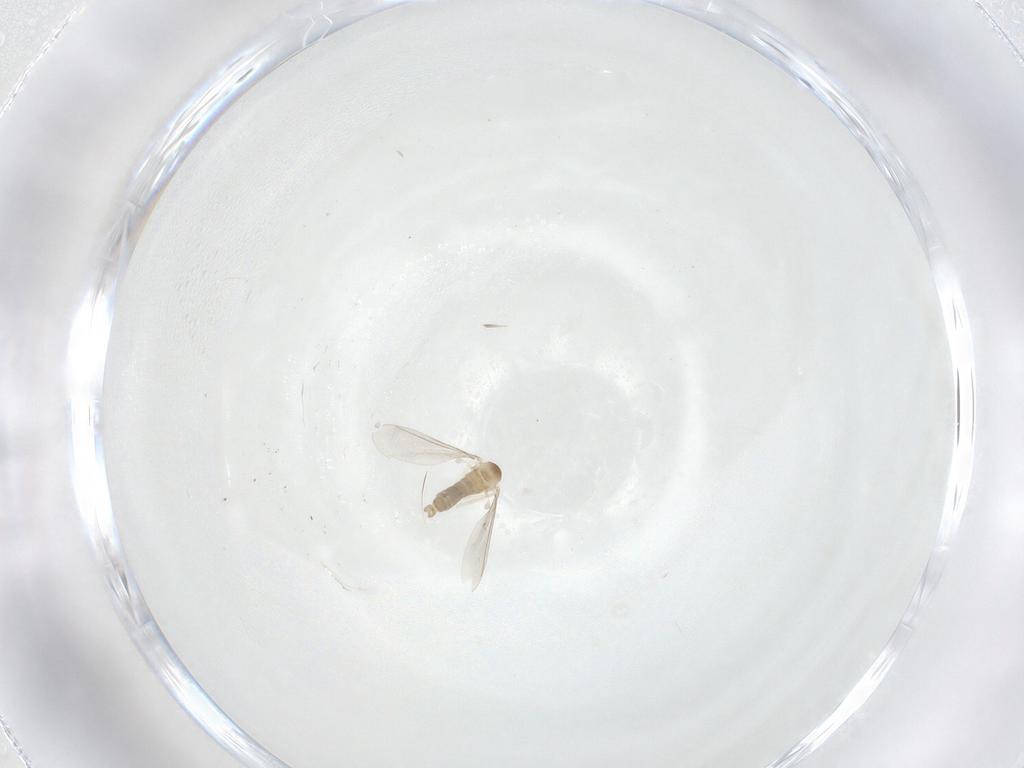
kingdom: Animalia
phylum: Arthropoda
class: Insecta
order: Diptera
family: Cecidomyiidae
